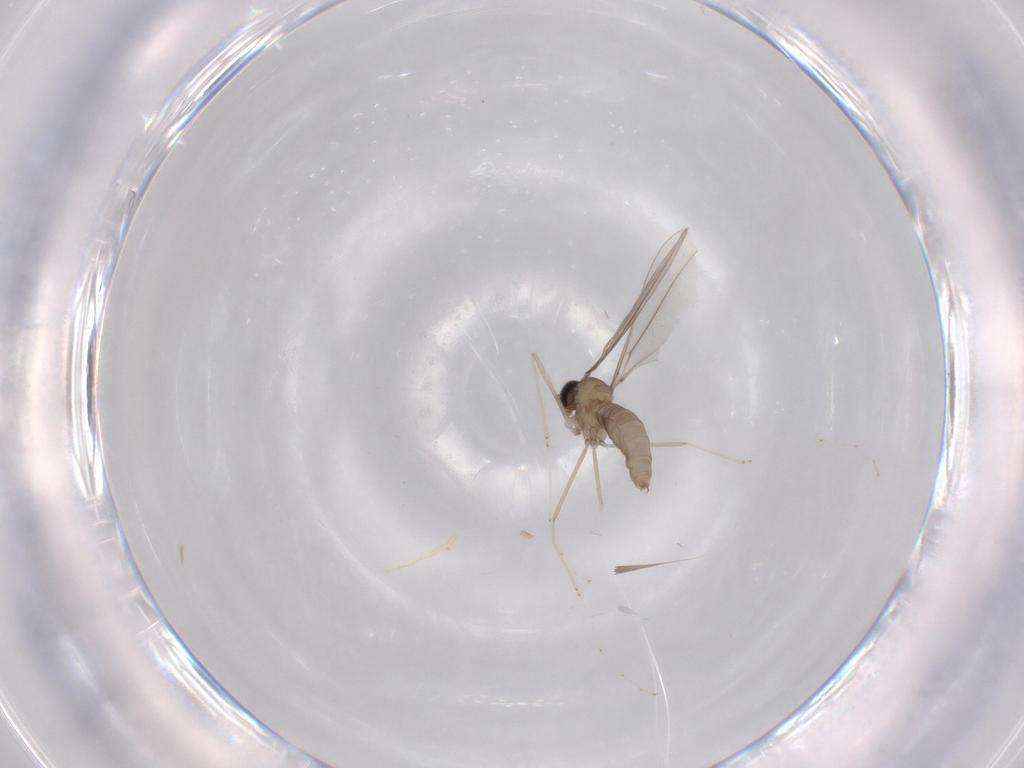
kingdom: Animalia
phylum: Arthropoda
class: Insecta
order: Diptera
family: Cecidomyiidae
